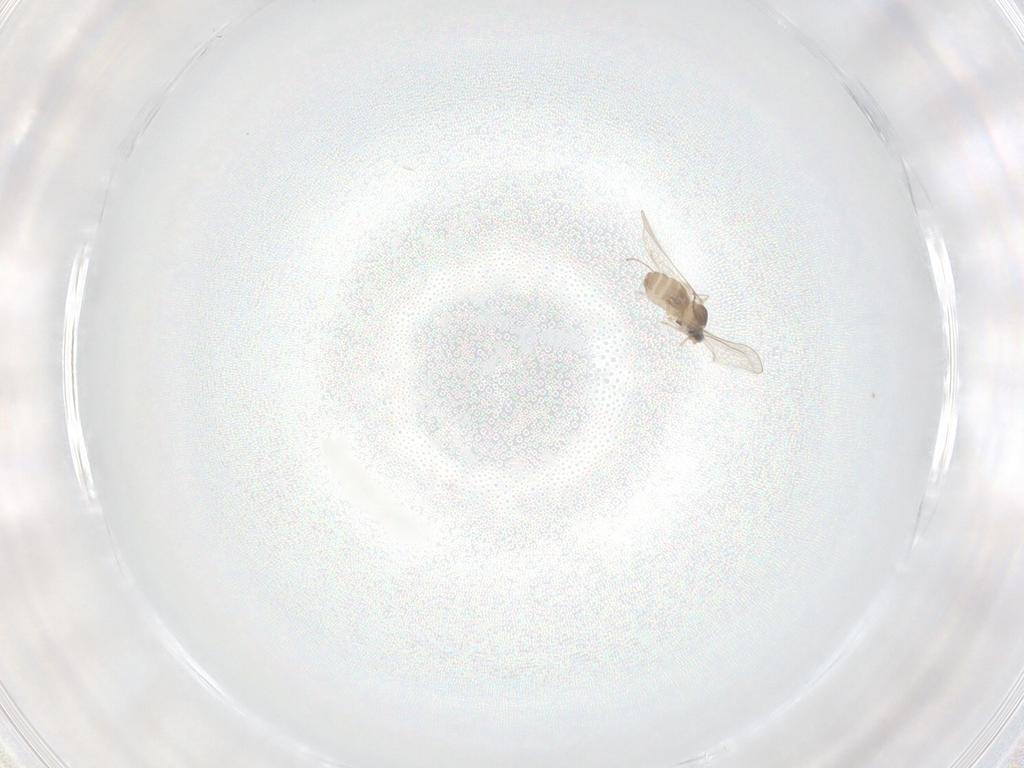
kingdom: Animalia
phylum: Arthropoda
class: Insecta
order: Diptera
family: Cecidomyiidae
